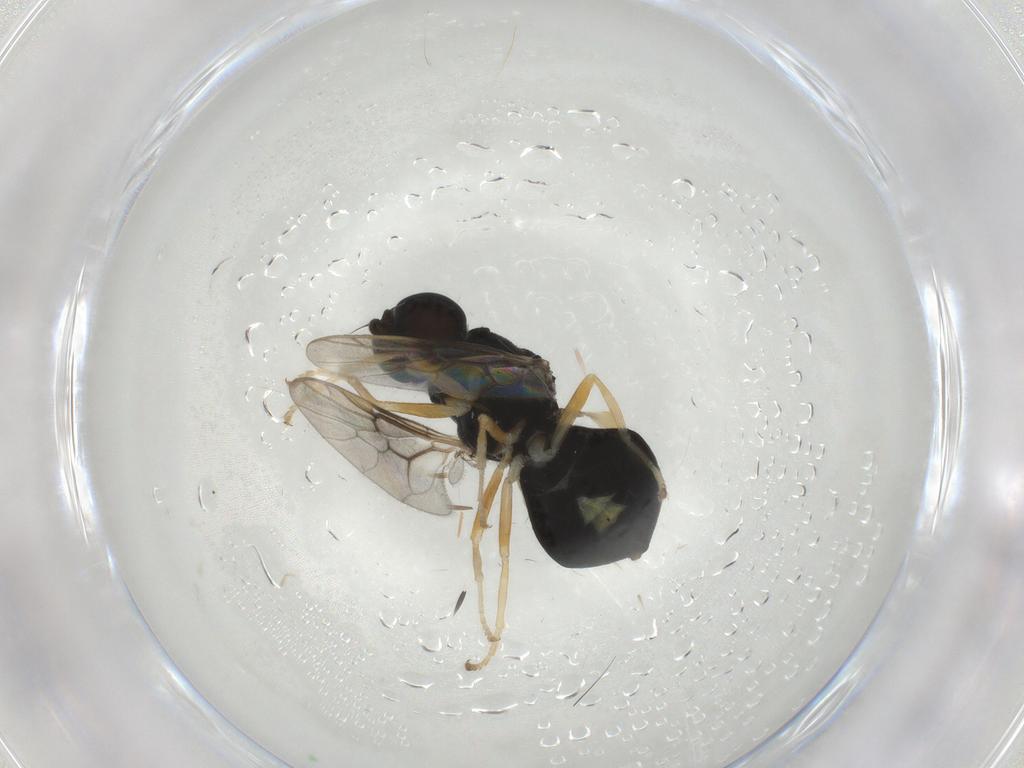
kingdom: Animalia
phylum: Arthropoda
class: Insecta
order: Diptera
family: Stratiomyidae
